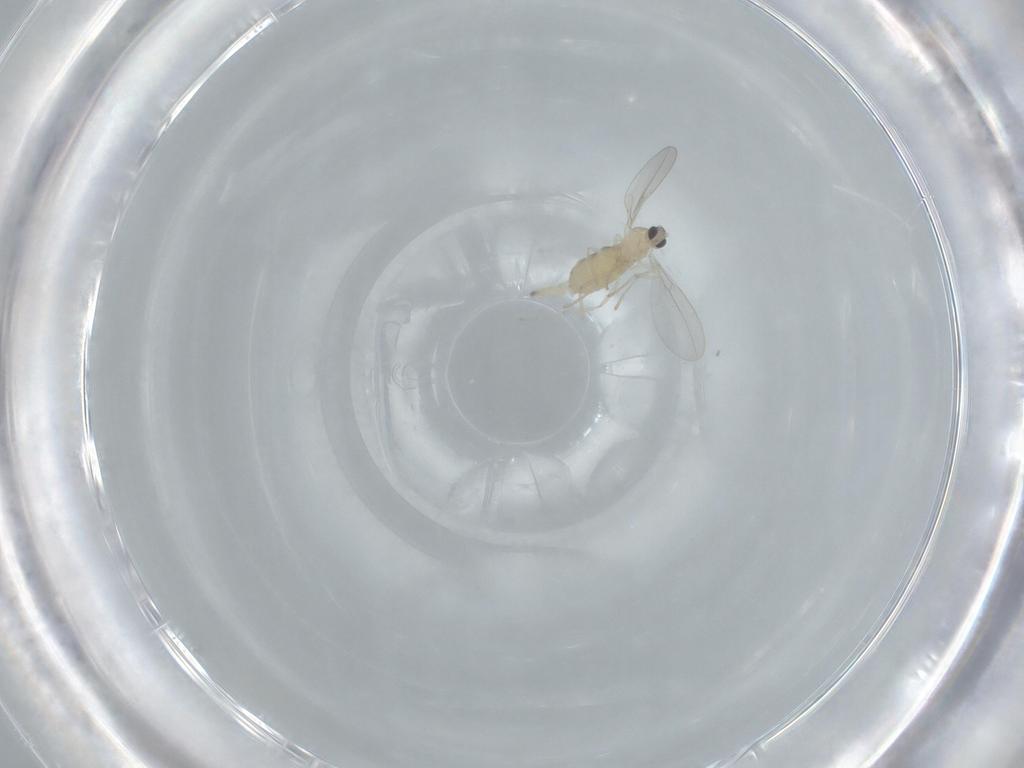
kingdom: Animalia
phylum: Arthropoda
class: Insecta
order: Diptera
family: Cecidomyiidae
